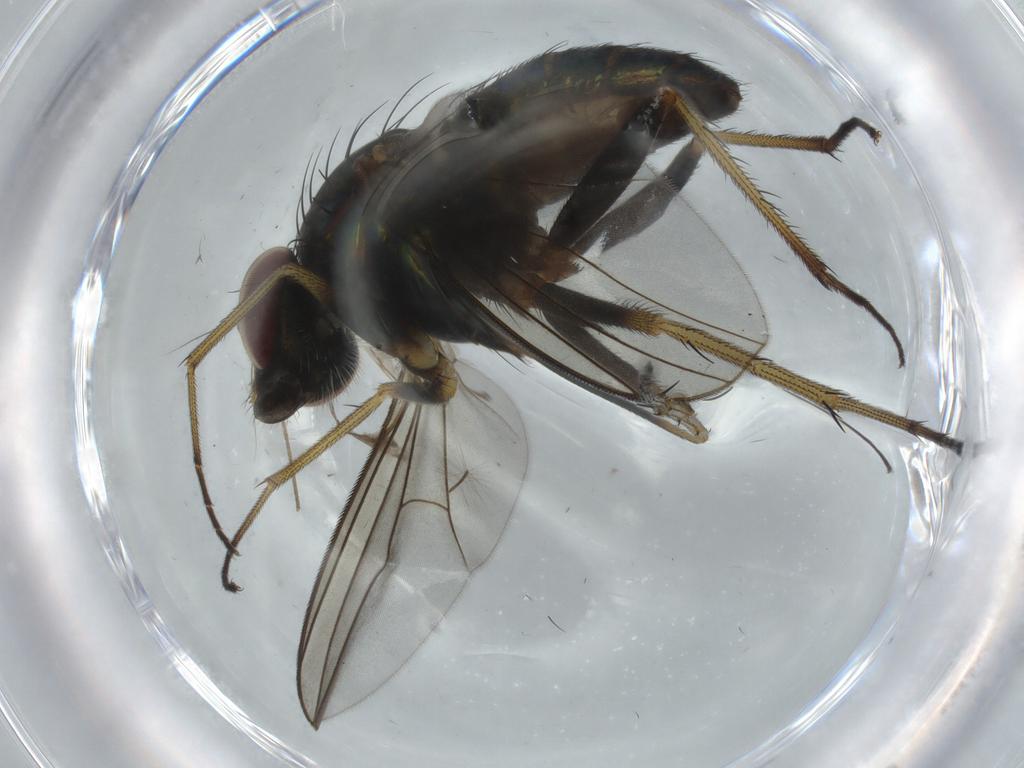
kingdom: Animalia
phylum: Arthropoda
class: Insecta
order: Diptera
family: Dolichopodidae
